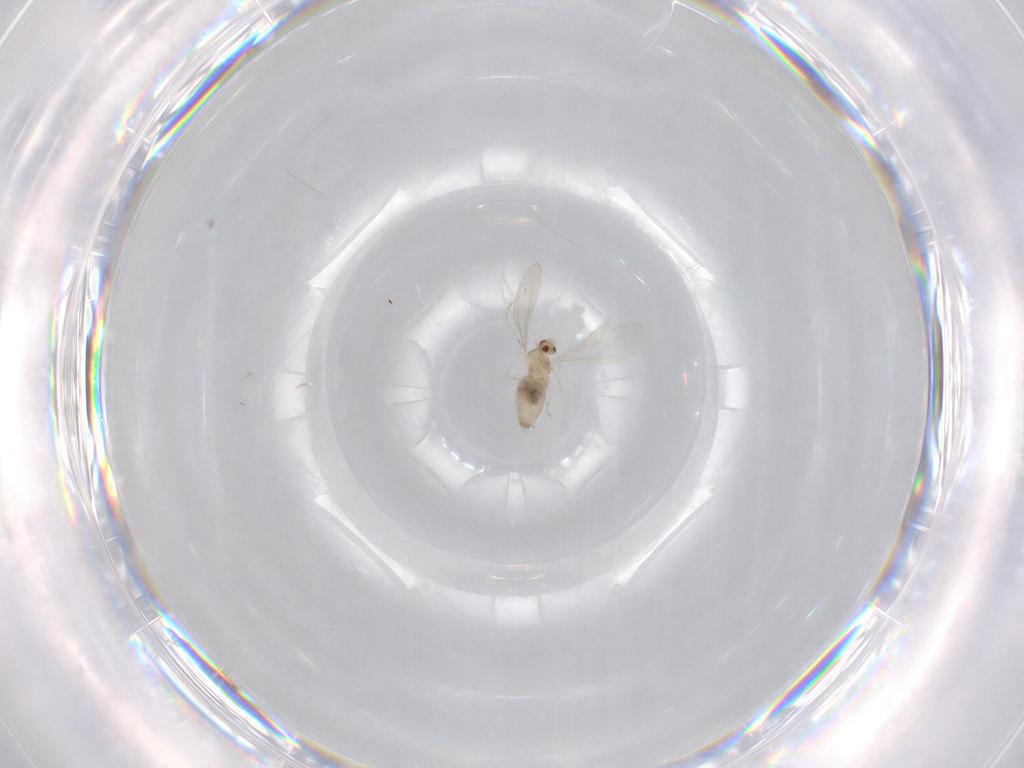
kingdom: Animalia
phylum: Arthropoda
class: Insecta
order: Diptera
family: Cecidomyiidae
